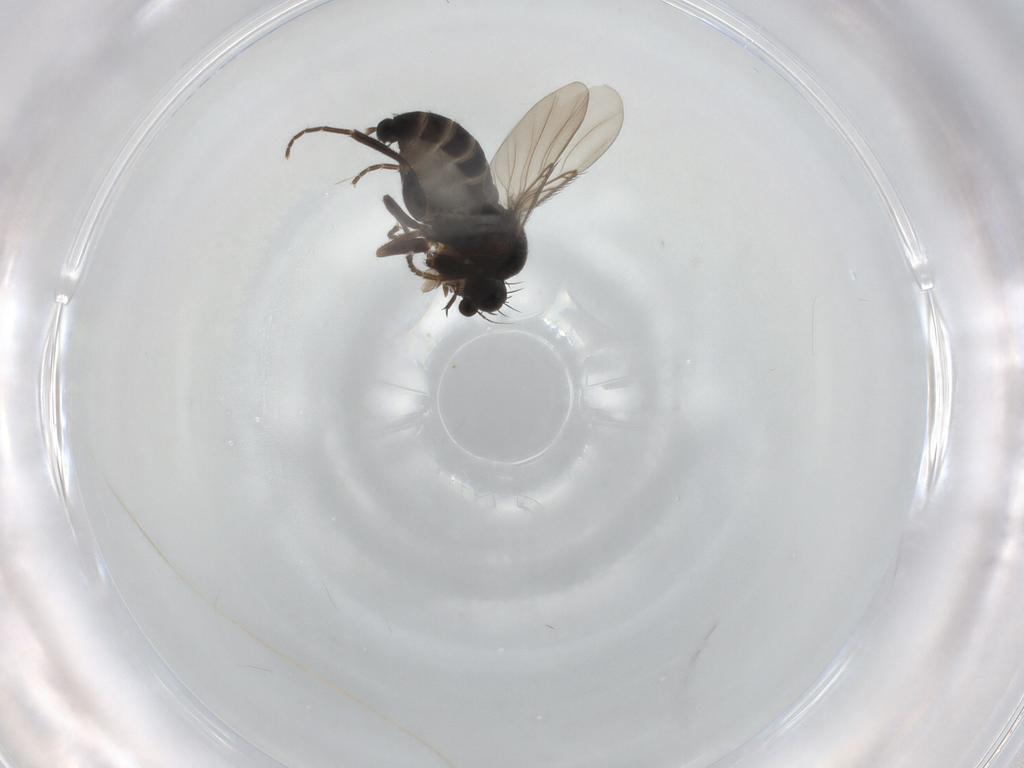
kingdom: Animalia
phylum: Arthropoda
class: Insecta
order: Diptera
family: Phoridae
